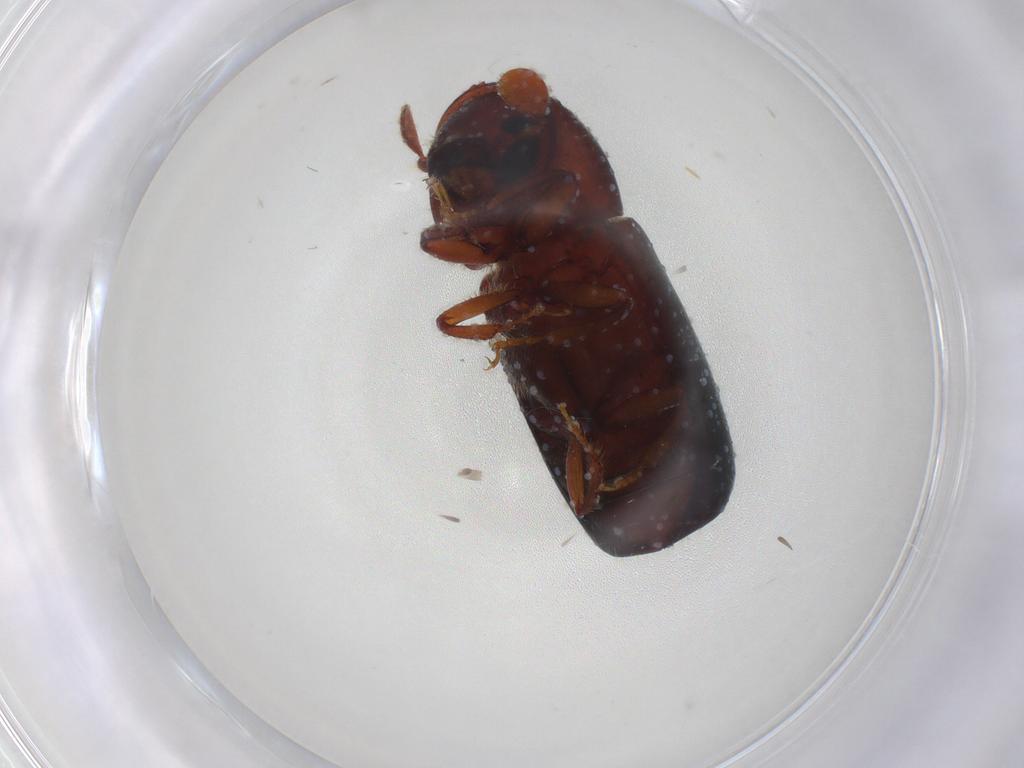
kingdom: Animalia
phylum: Arthropoda
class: Insecta
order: Coleoptera
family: Curculionidae
